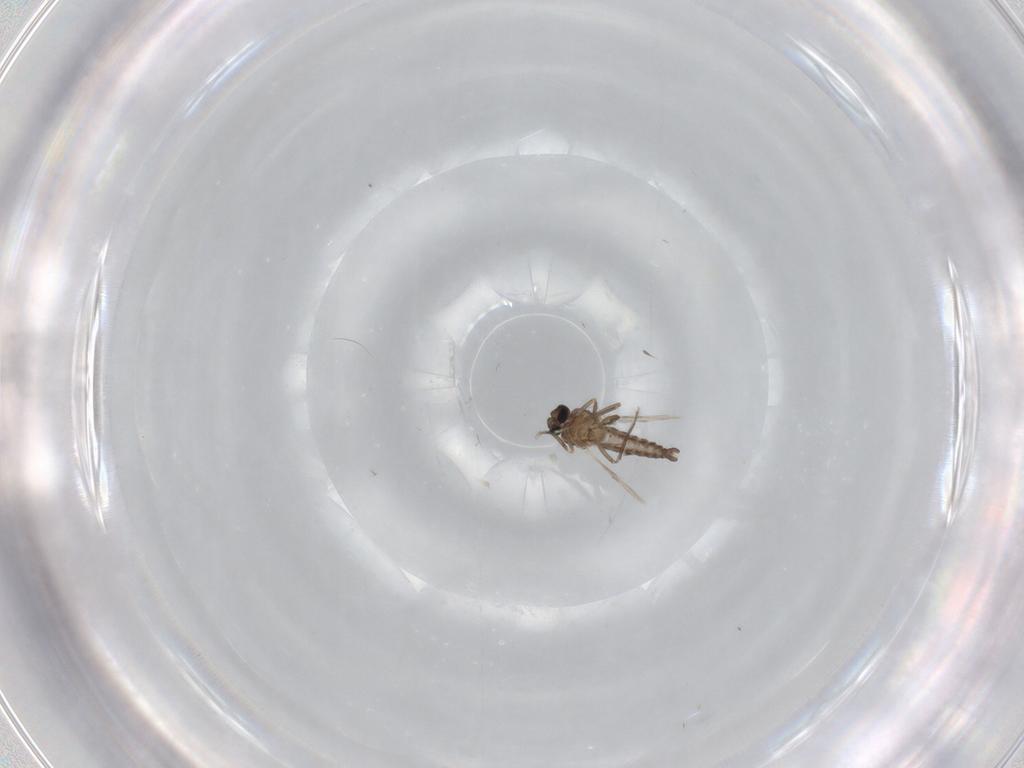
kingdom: Animalia
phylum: Arthropoda
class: Insecta
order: Diptera
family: Ceratopogonidae
